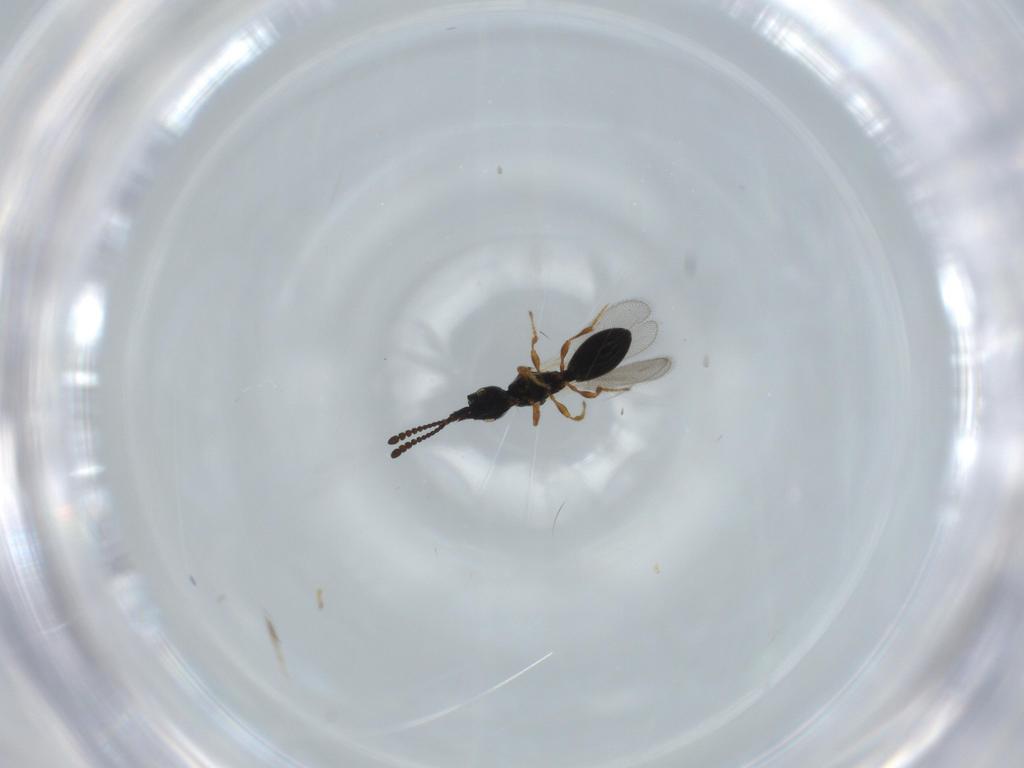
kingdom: Animalia
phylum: Arthropoda
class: Insecta
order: Hymenoptera
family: Diapriidae
